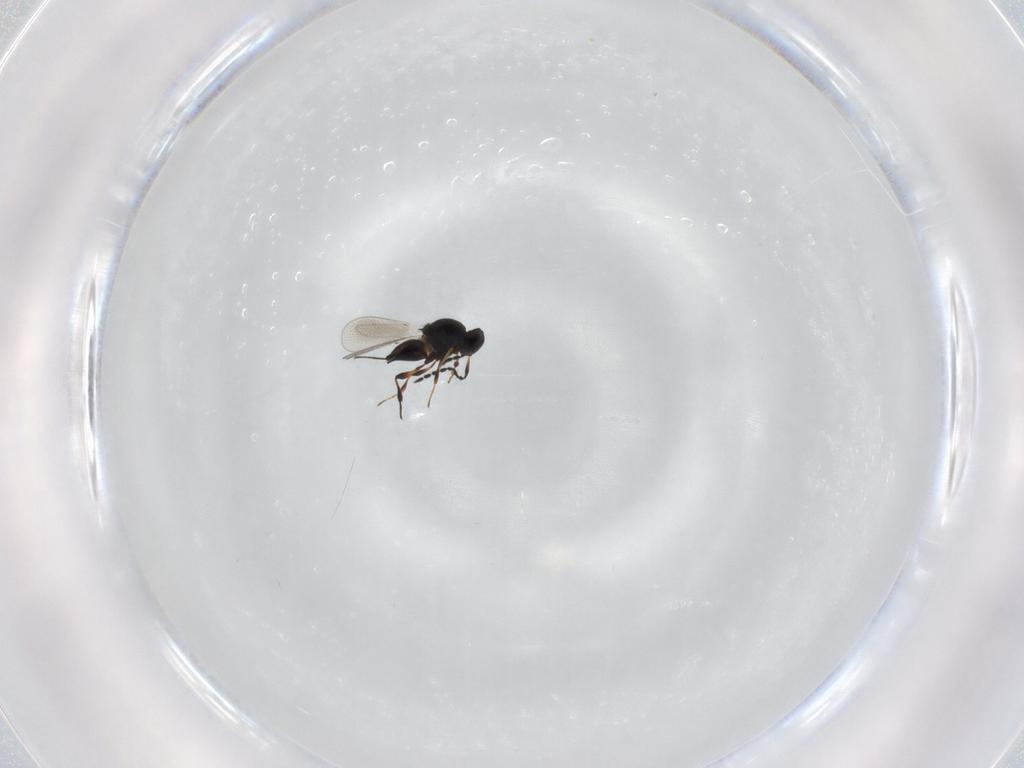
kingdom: Animalia
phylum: Arthropoda
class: Insecta
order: Hymenoptera
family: Platygastridae
